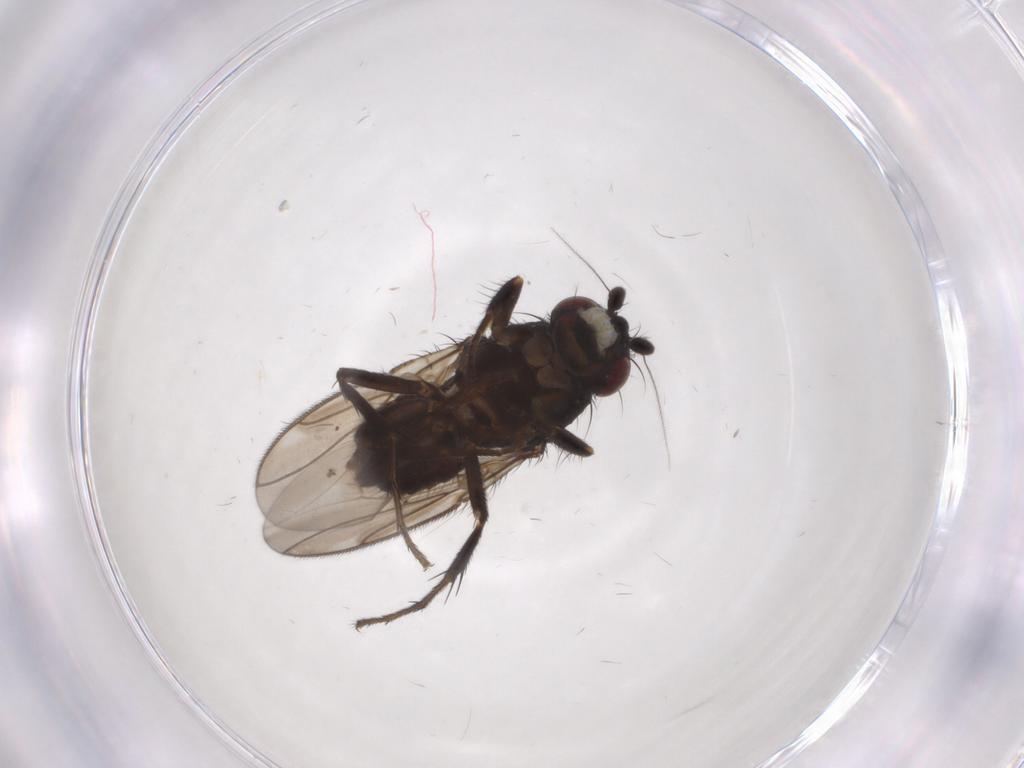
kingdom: Animalia
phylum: Arthropoda
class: Insecta
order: Diptera
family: Sphaeroceridae
